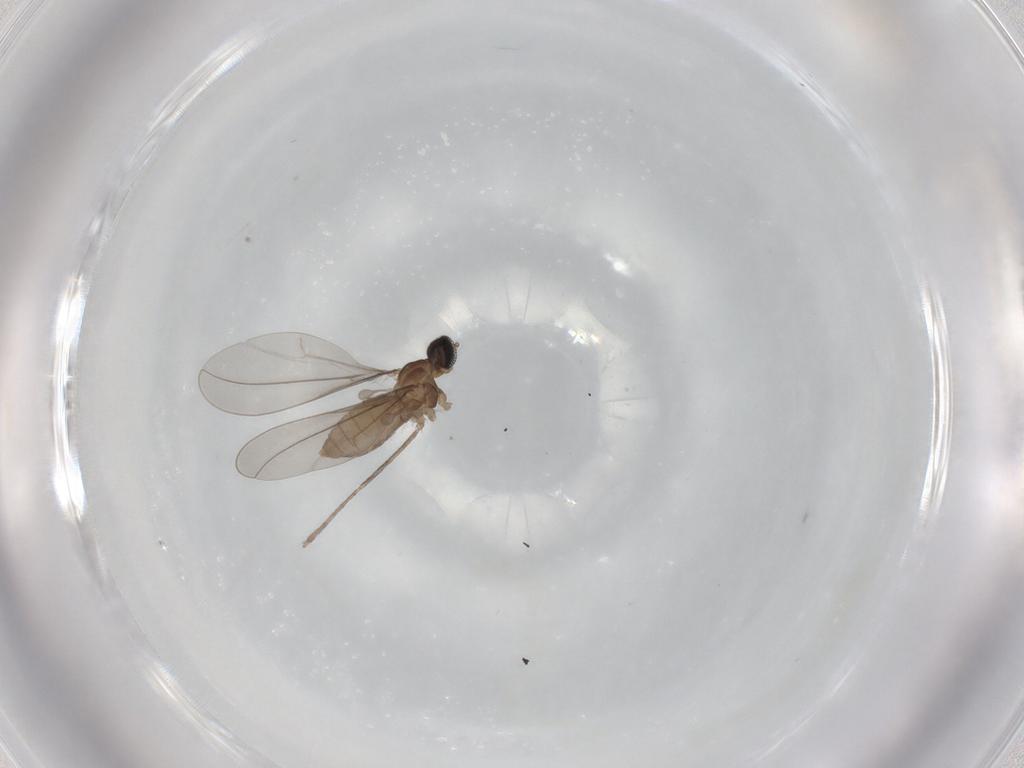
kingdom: Animalia
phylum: Arthropoda
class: Insecta
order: Diptera
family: Cecidomyiidae
